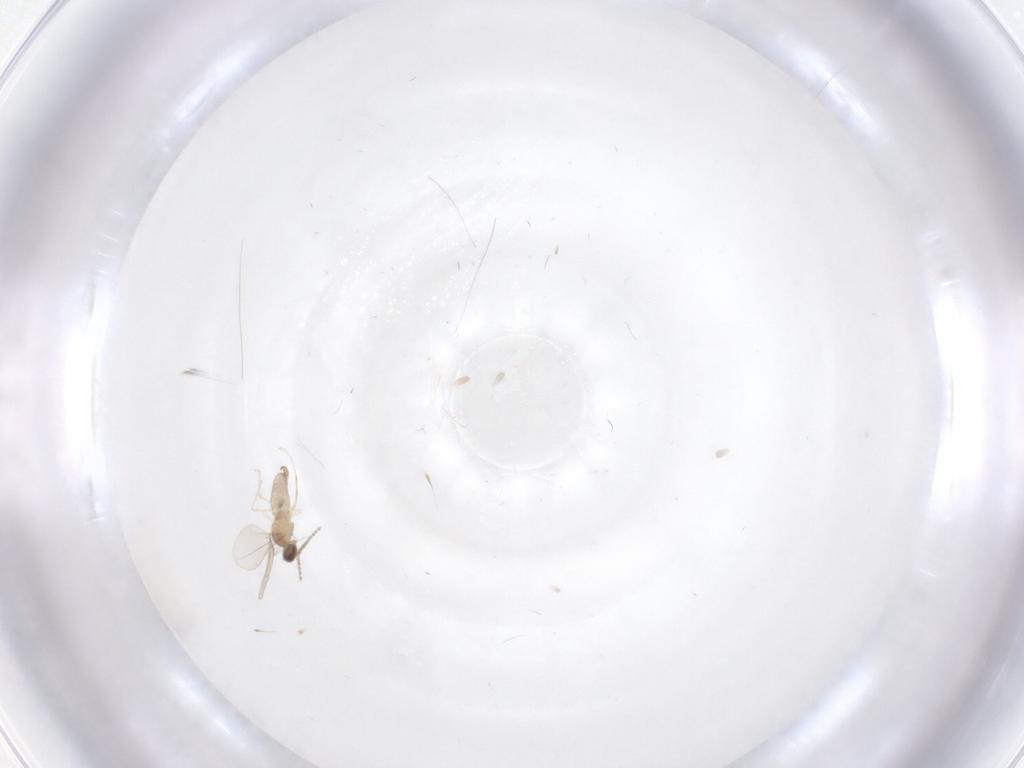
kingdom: Animalia
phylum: Arthropoda
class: Insecta
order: Diptera
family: Cecidomyiidae
